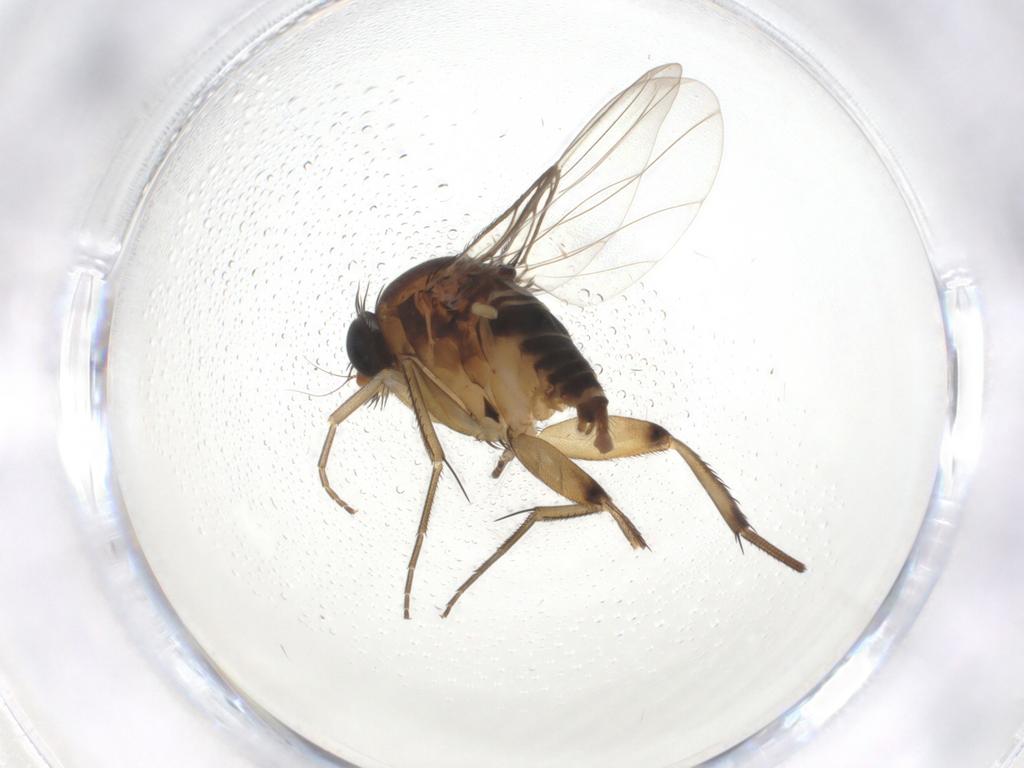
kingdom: Animalia
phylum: Arthropoda
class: Insecta
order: Diptera
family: Phoridae
